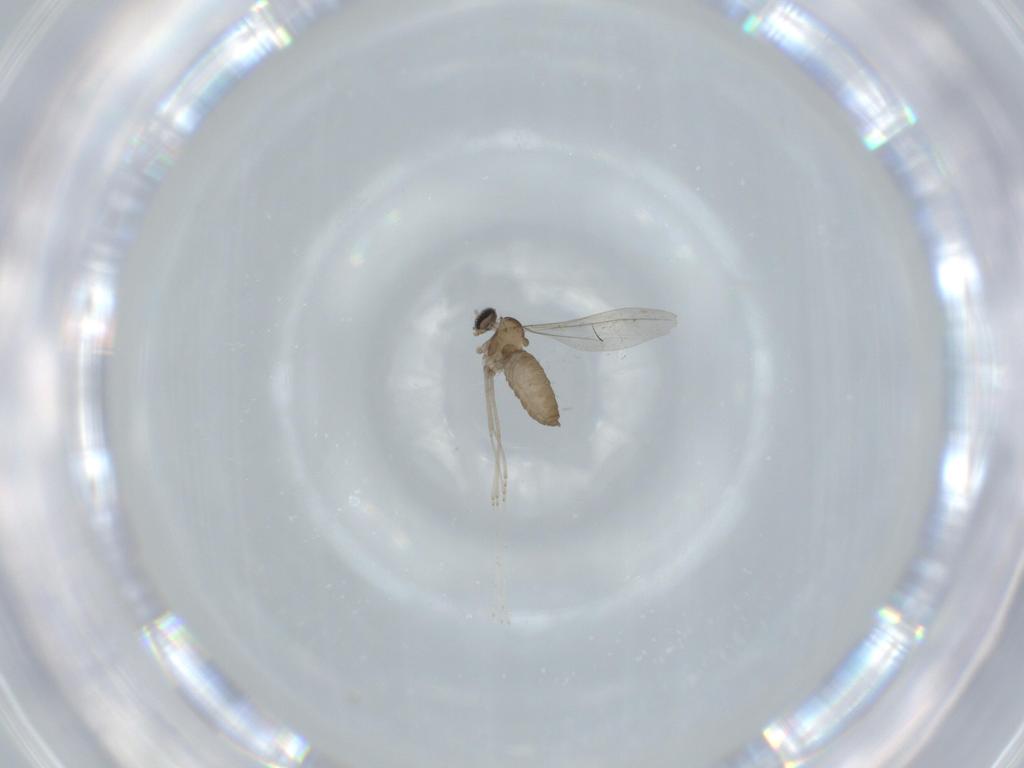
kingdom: Animalia
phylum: Arthropoda
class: Insecta
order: Diptera
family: Cecidomyiidae
